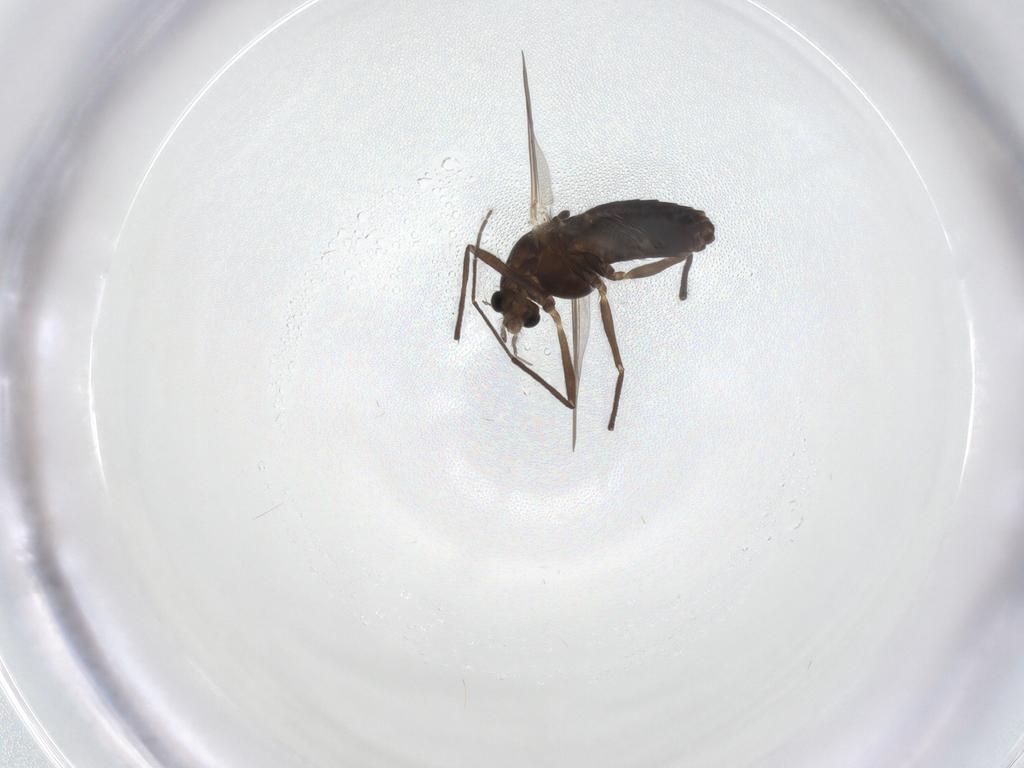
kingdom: Animalia
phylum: Arthropoda
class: Insecta
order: Diptera
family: Chironomidae
